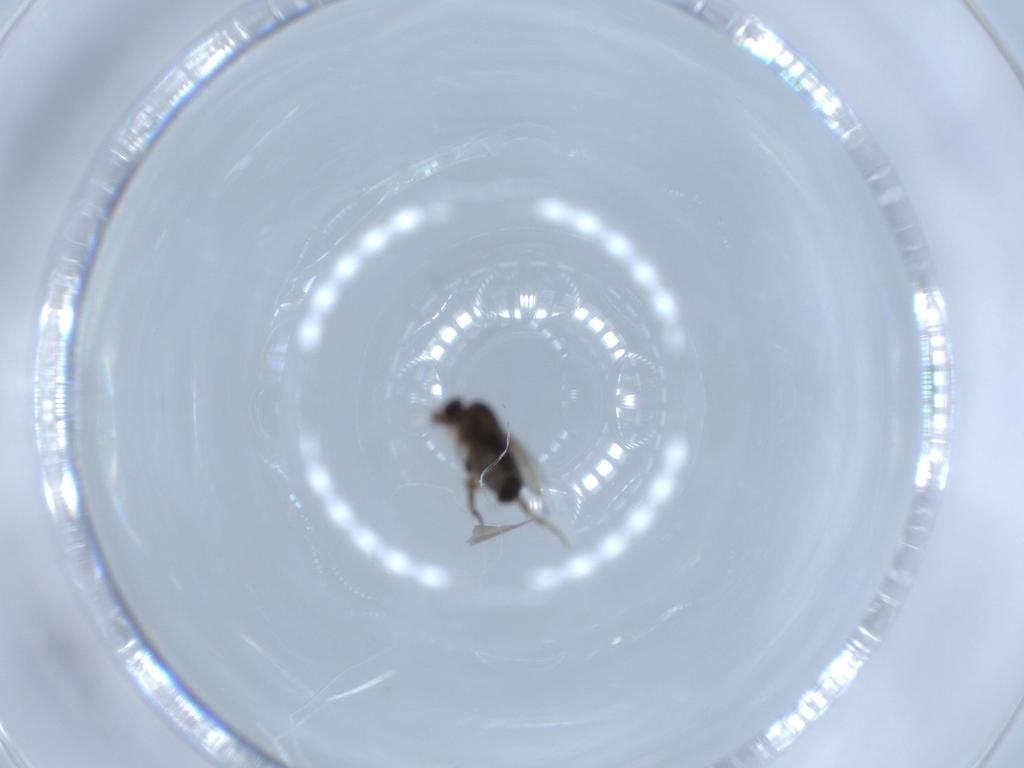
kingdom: Animalia
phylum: Arthropoda
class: Insecta
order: Diptera
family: Phoridae
